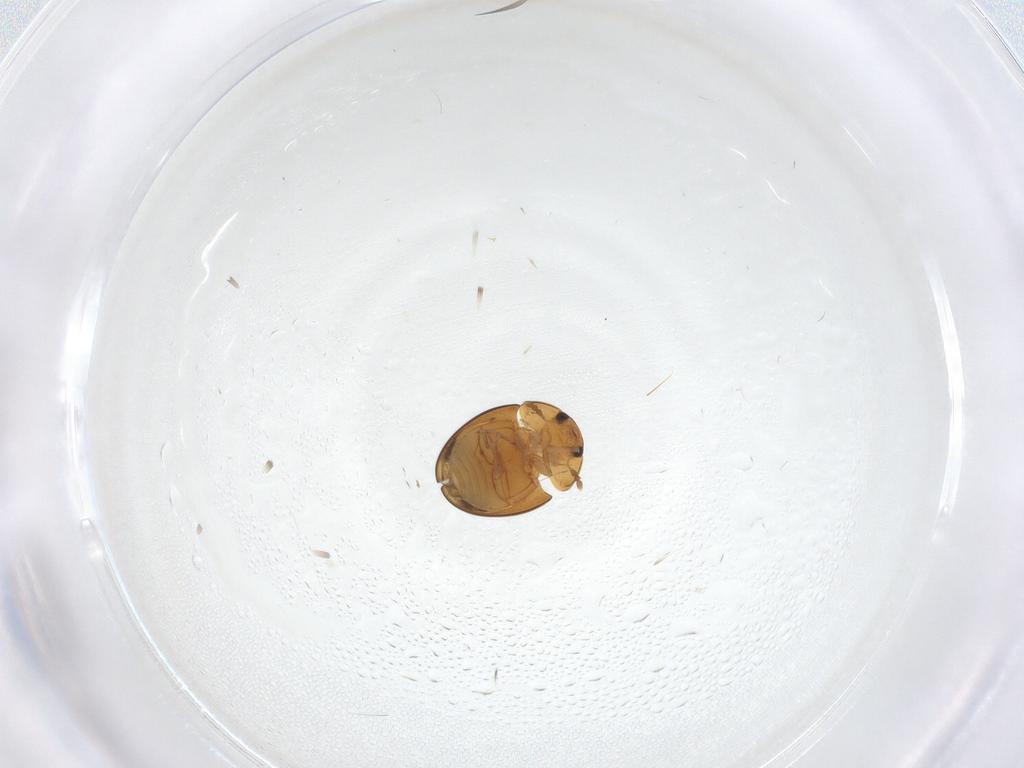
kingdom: Animalia
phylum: Arthropoda
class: Insecta
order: Coleoptera
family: Phalacridae
